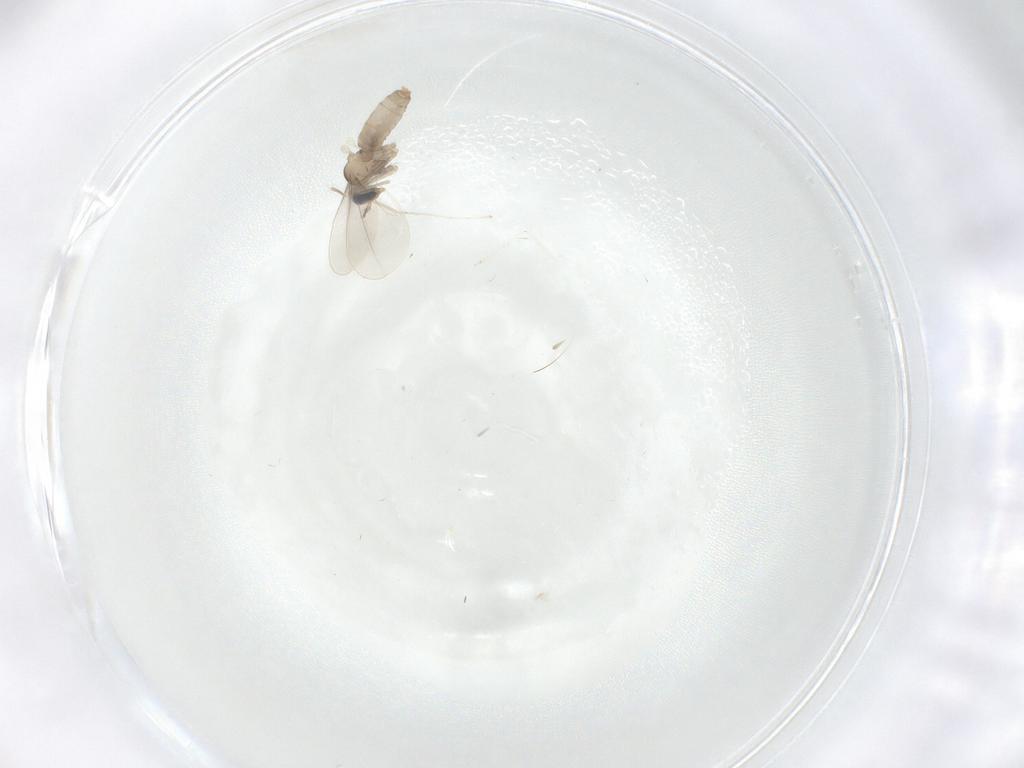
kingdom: Animalia
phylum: Arthropoda
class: Insecta
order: Diptera
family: Cecidomyiidae
